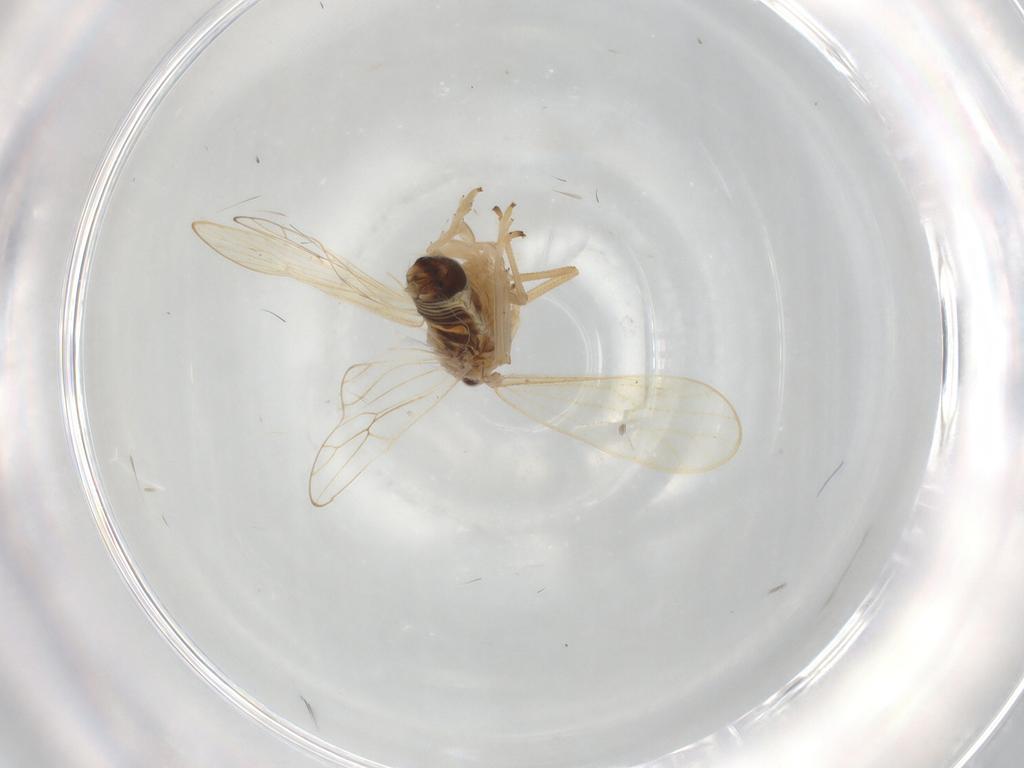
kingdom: Animalia
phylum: Arthropoda
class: Insecta
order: Hemiptera
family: Delphacidae
